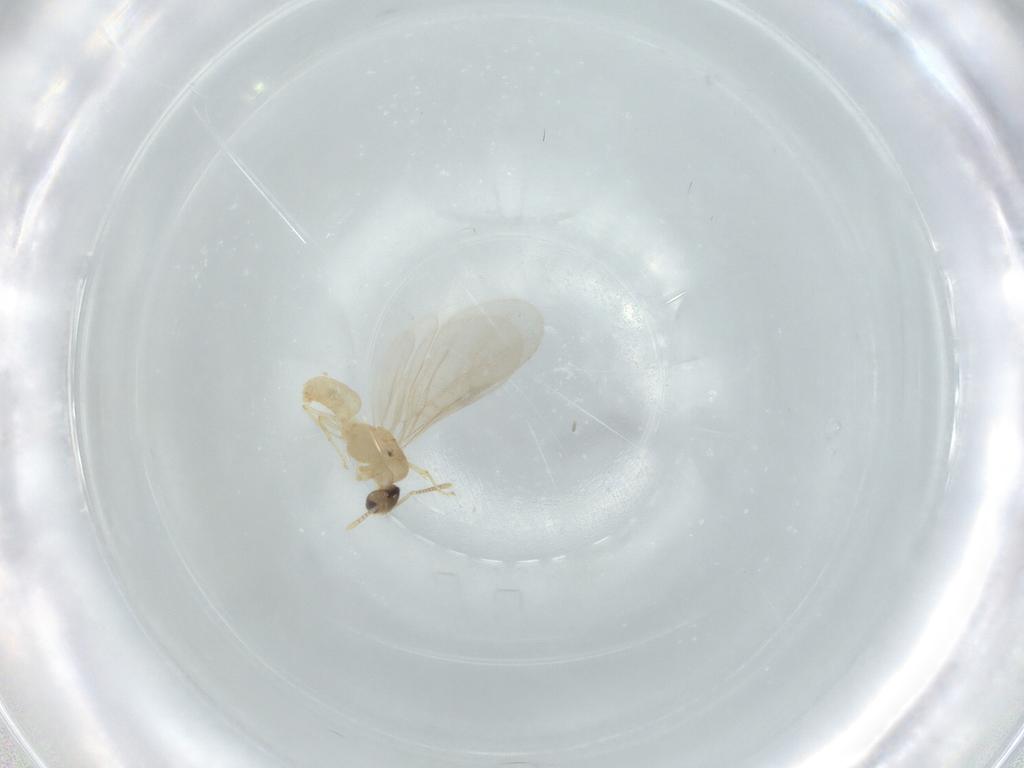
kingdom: Animalia
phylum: Arthropoda
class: Insecta
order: Hymenoptera
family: Formicidae
